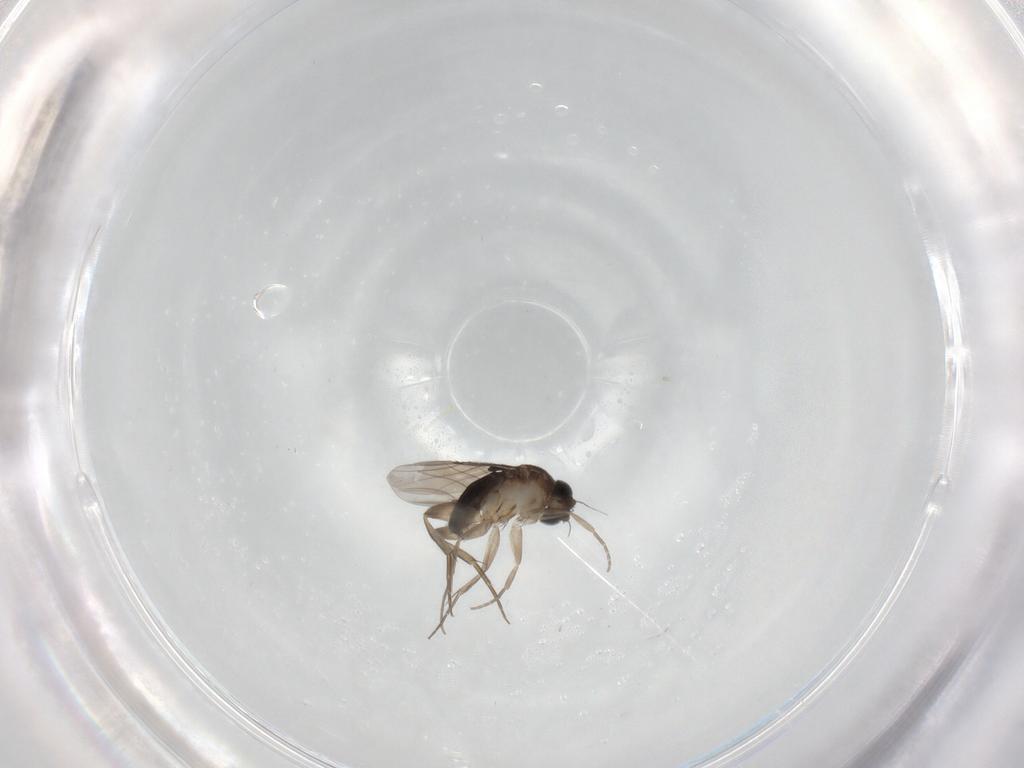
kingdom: Animalia
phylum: Arthropoda
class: Insecta
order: Diptera
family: Phoridae
